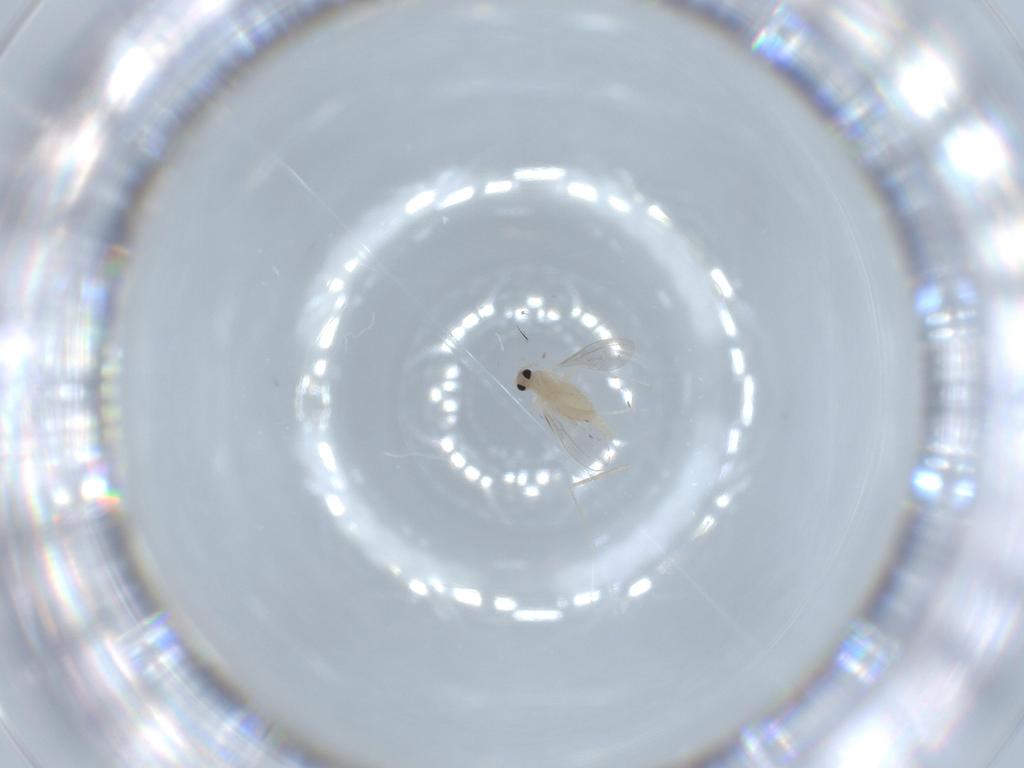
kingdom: Animalia
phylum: Arthropoda
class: Insecta
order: Diptera
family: Cecidomyiidae
